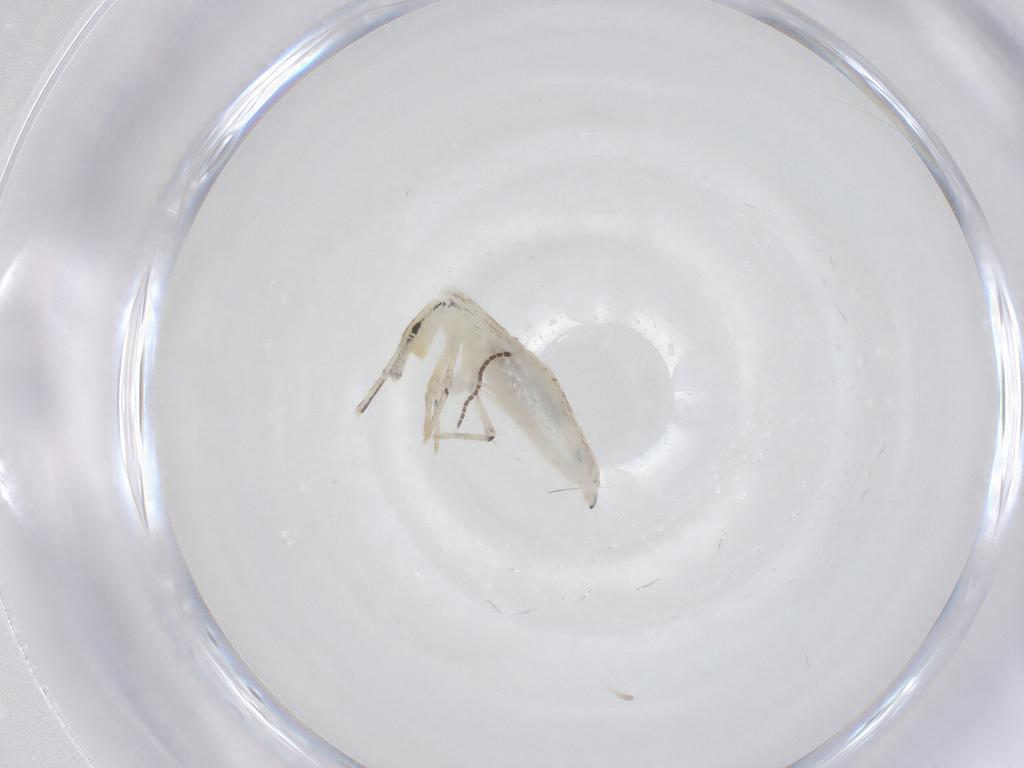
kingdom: Animalia
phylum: Arthropoda
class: Collembola
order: Entomobryomorpha
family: Entomobryidae
